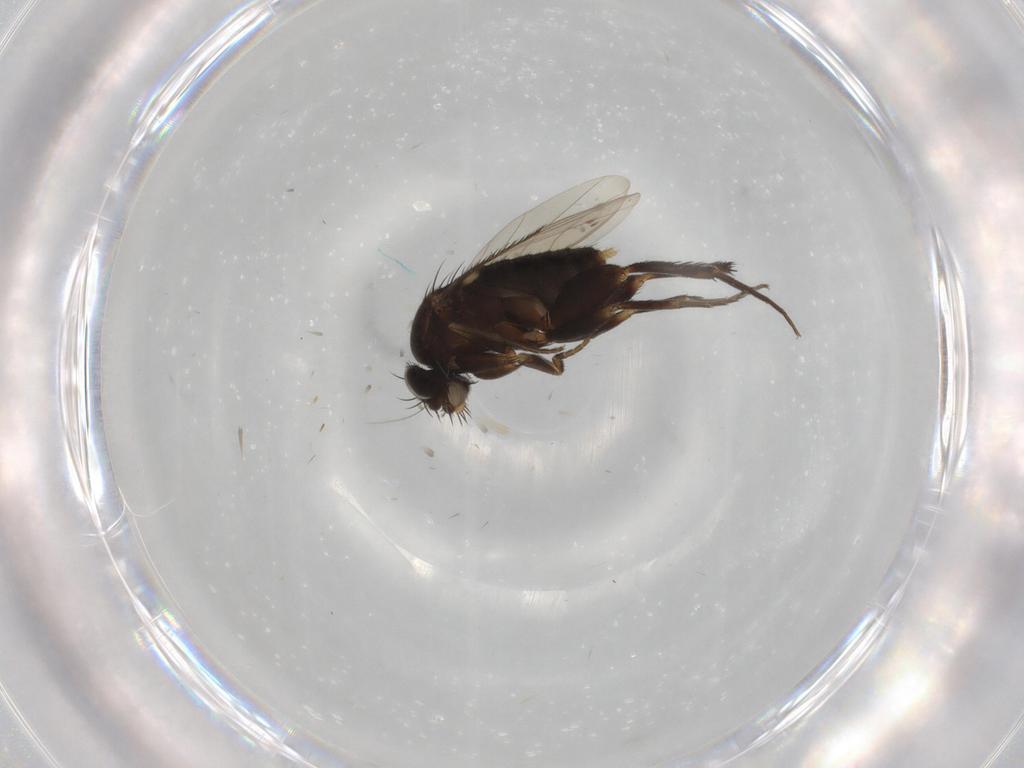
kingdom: Animalia
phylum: Arthropoda
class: Insecta
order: Diptera
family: Phoridae
